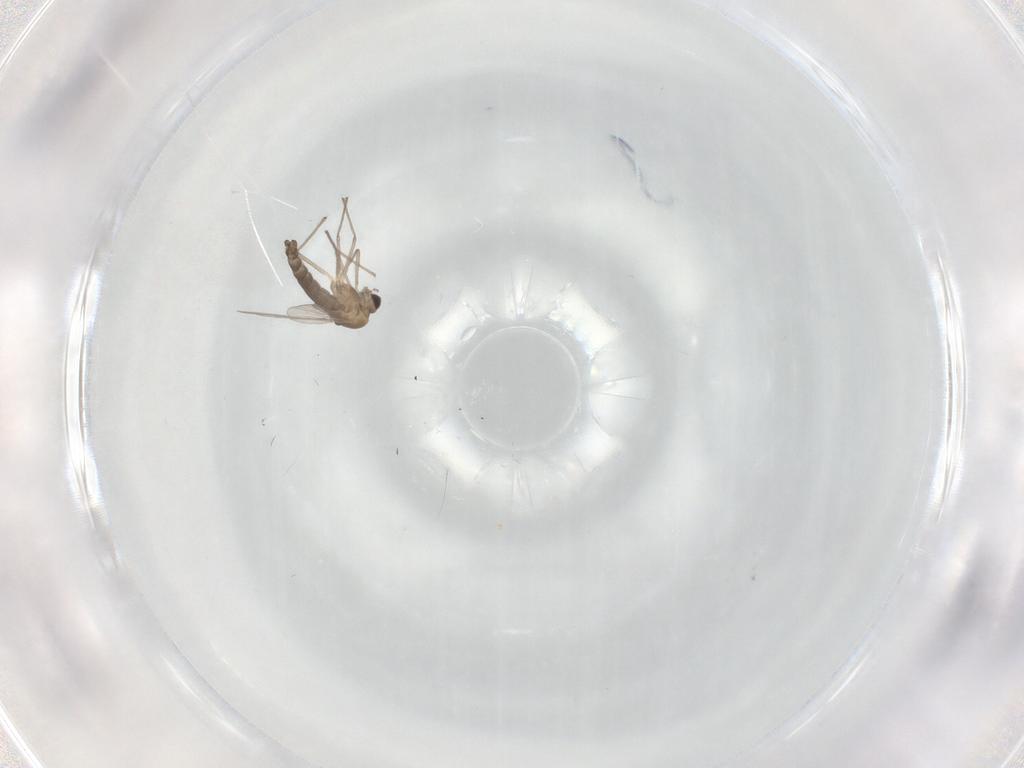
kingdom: Animalia
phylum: Arthropoda
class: Insecta
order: Diptera
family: Chironomidae
